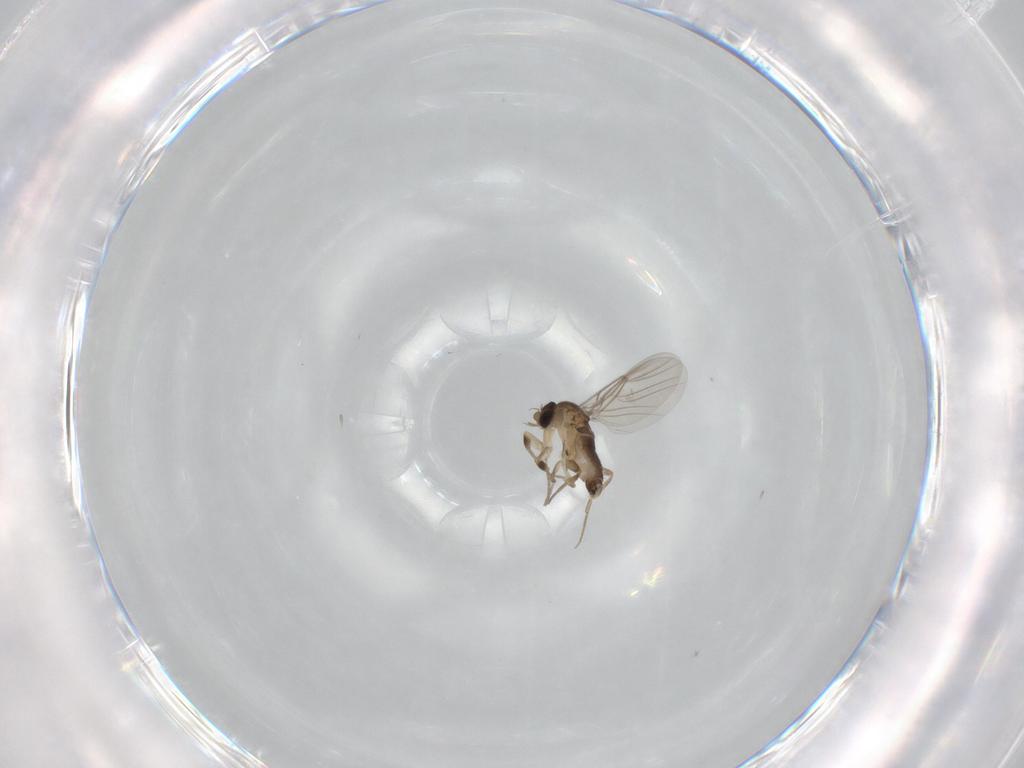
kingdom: Animalia
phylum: Arthropoda
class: Insecta
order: Diptera
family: Phoridae
